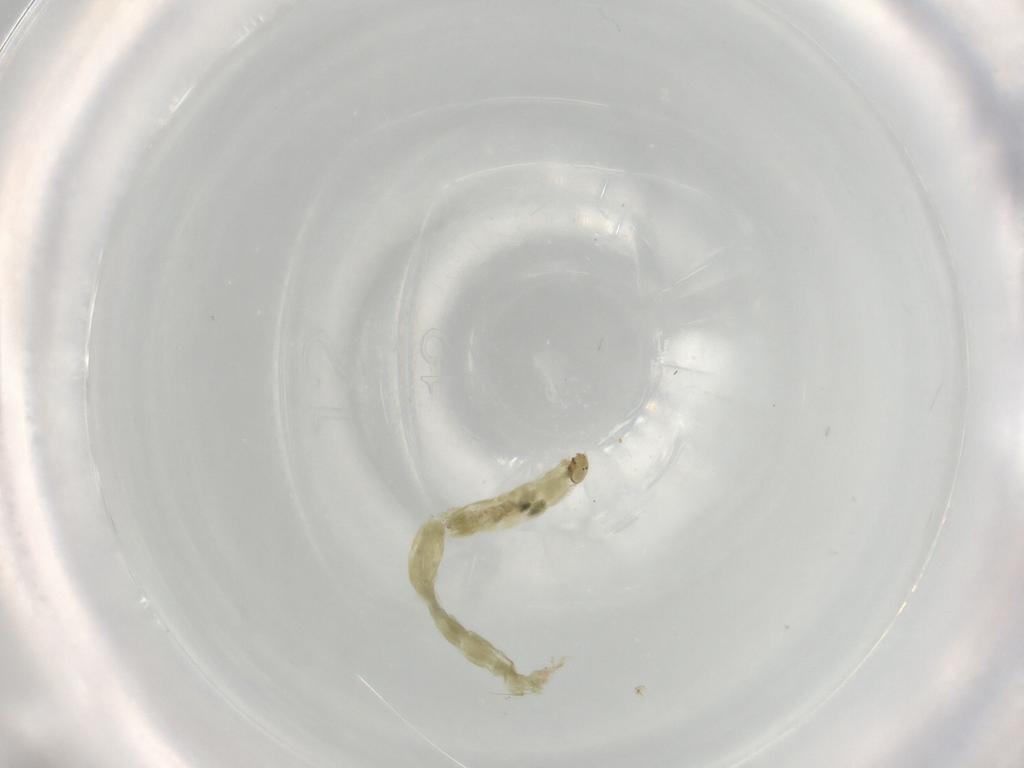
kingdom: Animalia
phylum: Arthropoda
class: Insecta
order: Diptera
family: Chironomidae
